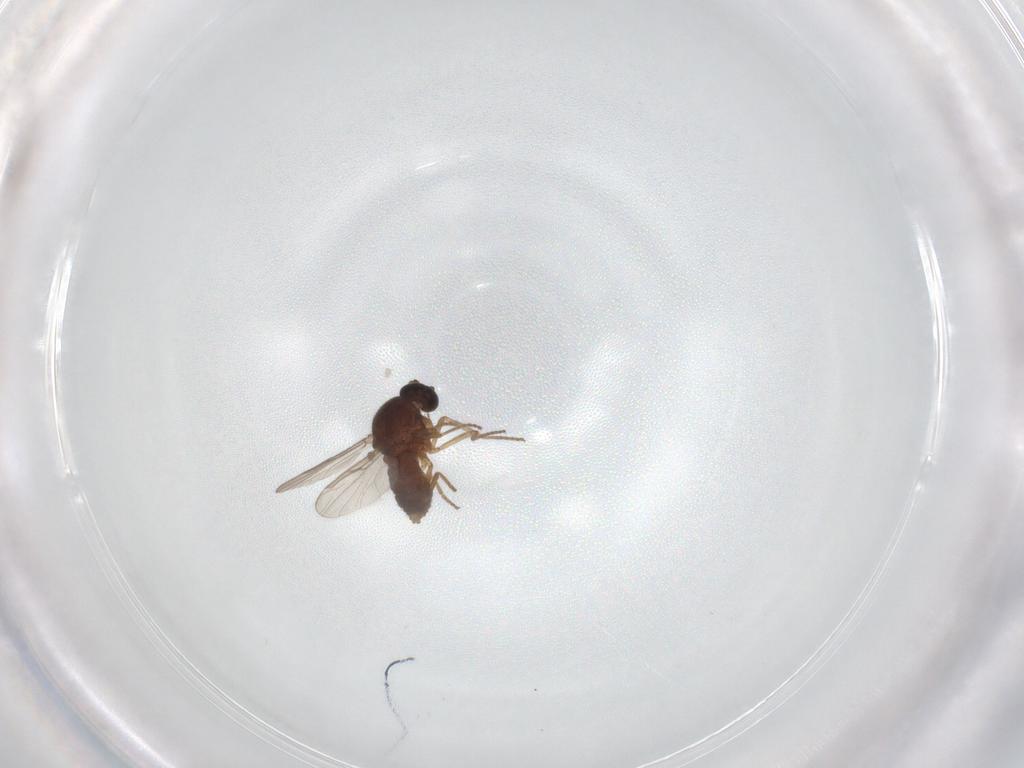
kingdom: Animalia
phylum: Arthropoda
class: Insecta
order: Diptera
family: Ceratopogonidae
